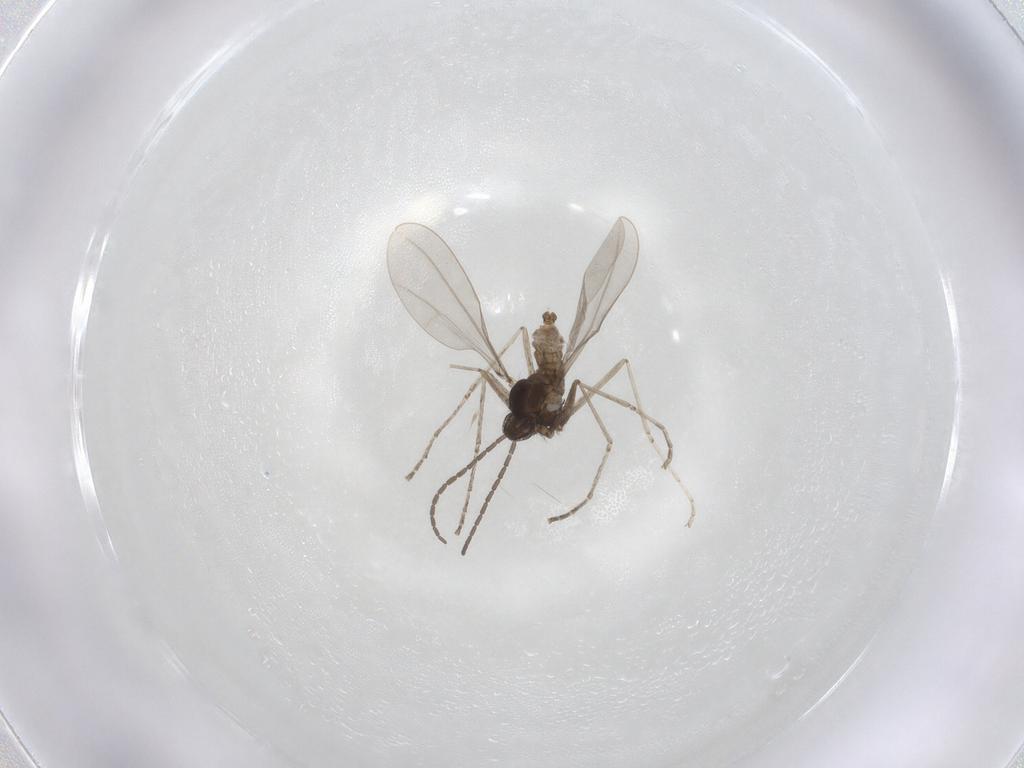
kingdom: Animalia
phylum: Arthropoda
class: Insecta
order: Diptera
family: Cecidomyiidae
